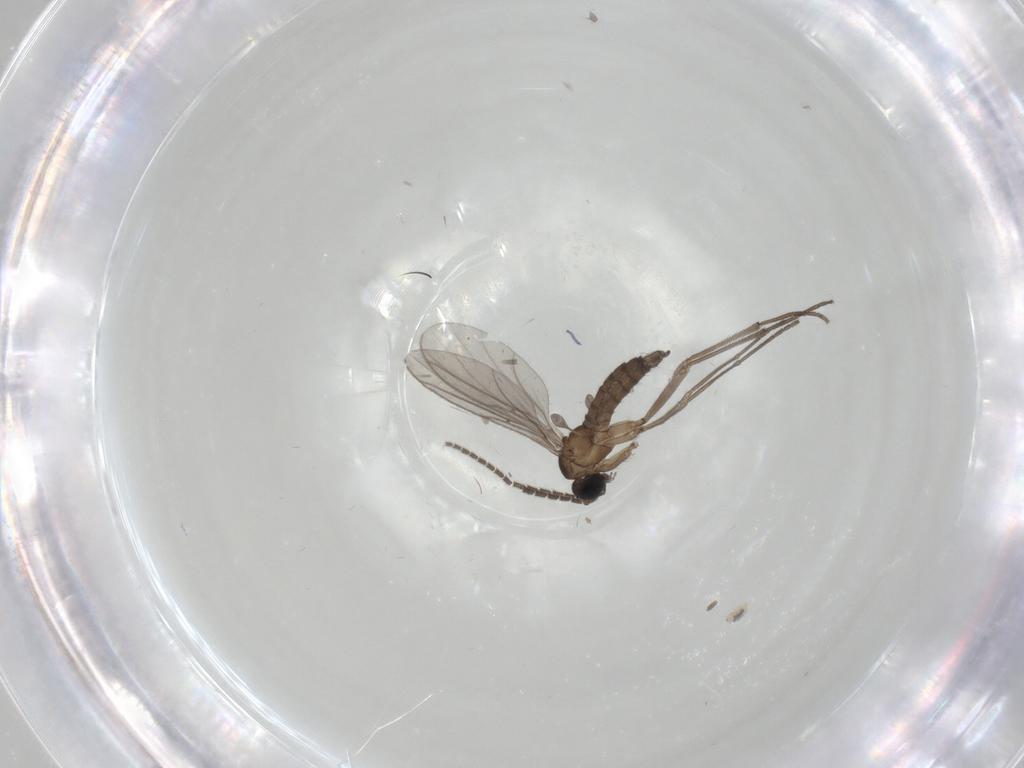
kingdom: Animalia
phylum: Arthropoda
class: Insecta
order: Diptera
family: Sciaridae
